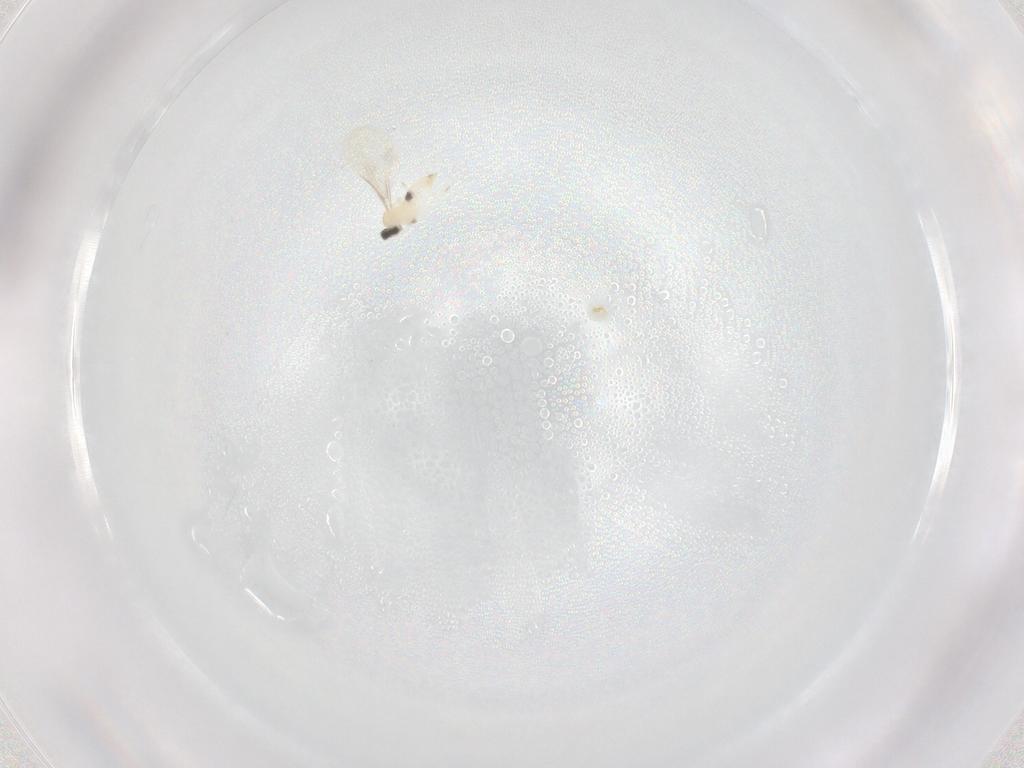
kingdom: Animalia
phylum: Arthropoda
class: Insecta
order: Diptera
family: Cecidomyiidae
